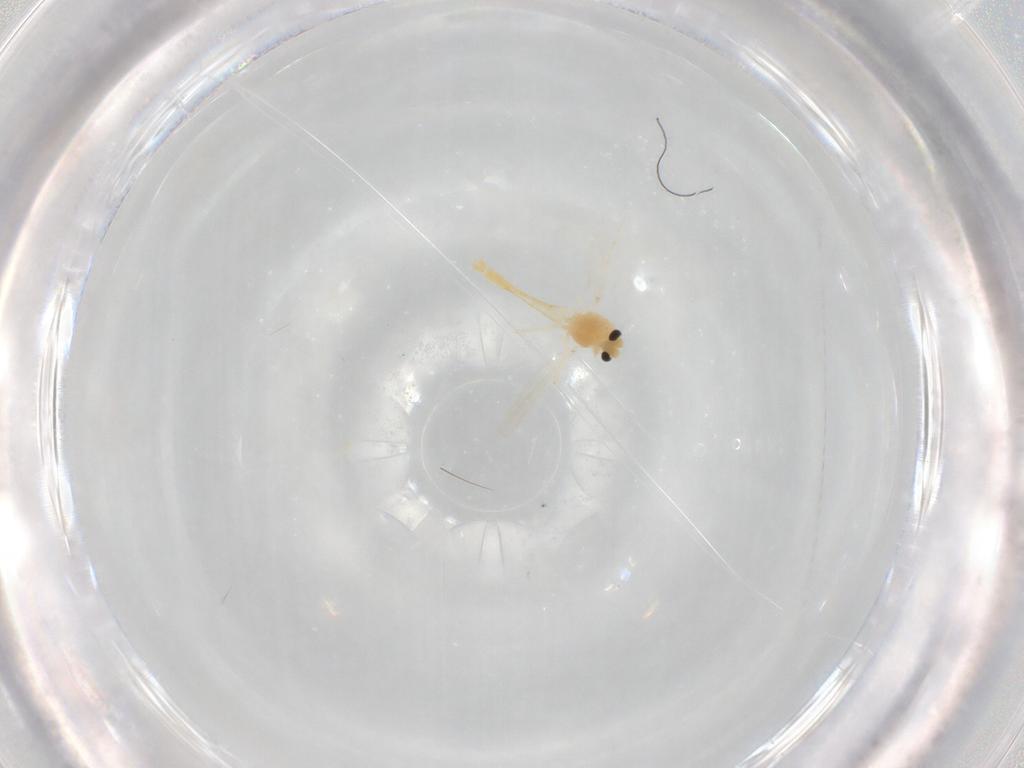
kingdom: Animalia
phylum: Arthropoda
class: Insecta
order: Diptera
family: Chironomidae
